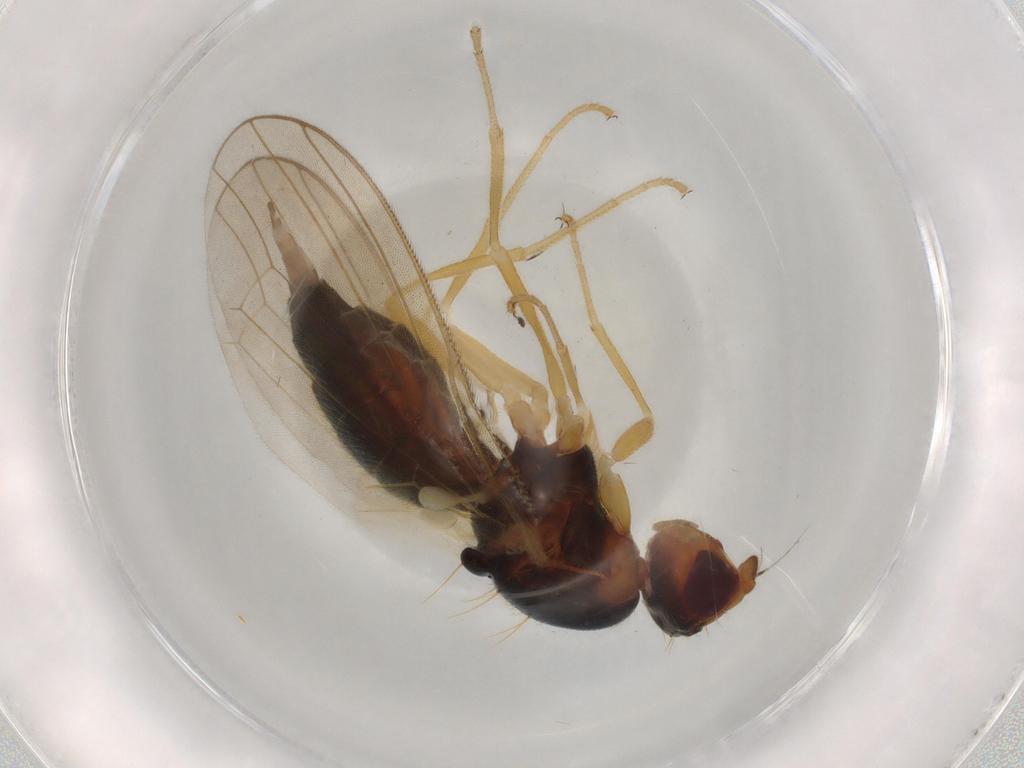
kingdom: Animalia
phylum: Arthropoda
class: Insecta
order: Diptera
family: Hybotidae
